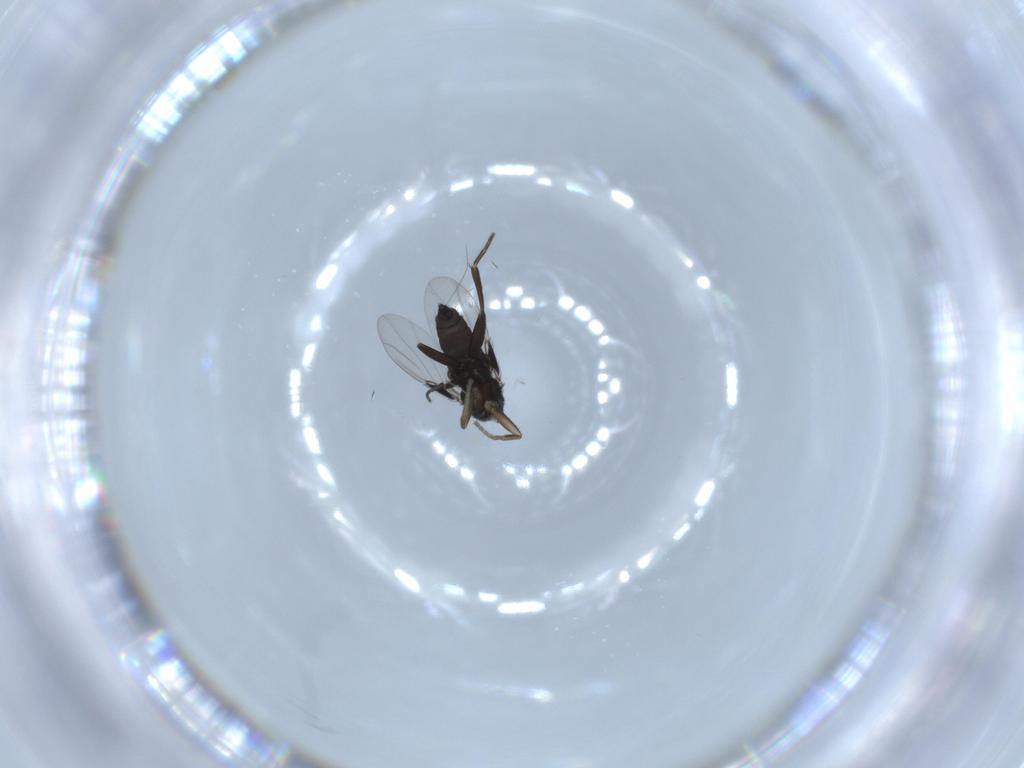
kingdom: Animalia
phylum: Arthropoda
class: Insecta
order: Diptera
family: Phoridae
